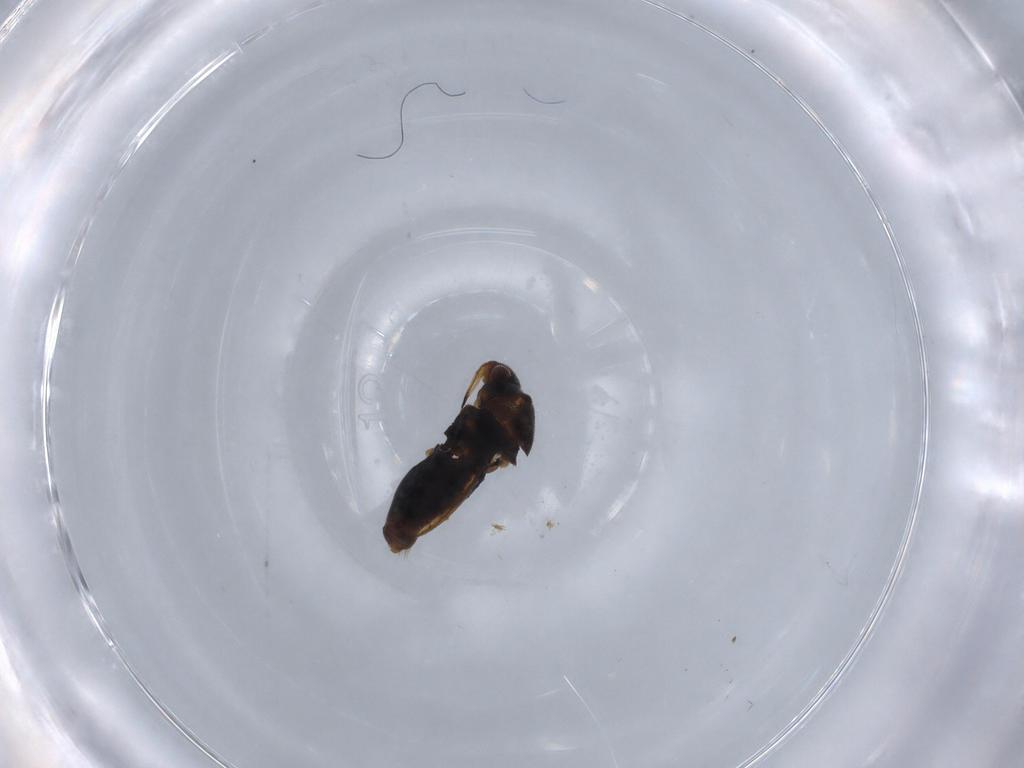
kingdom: Animalia
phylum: Arthropoda
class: Insecta
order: Hemiptera
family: Veliidae
